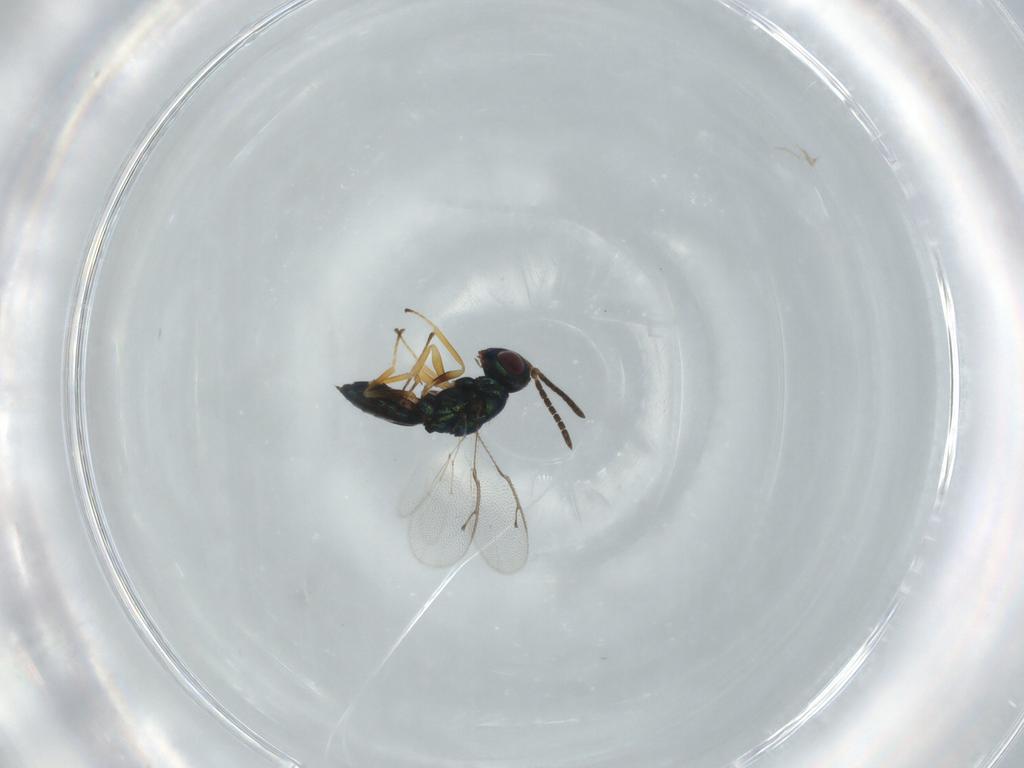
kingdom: Animalia
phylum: Arthropoda
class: Insecta
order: Hymenoptera
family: Pteromalidae
